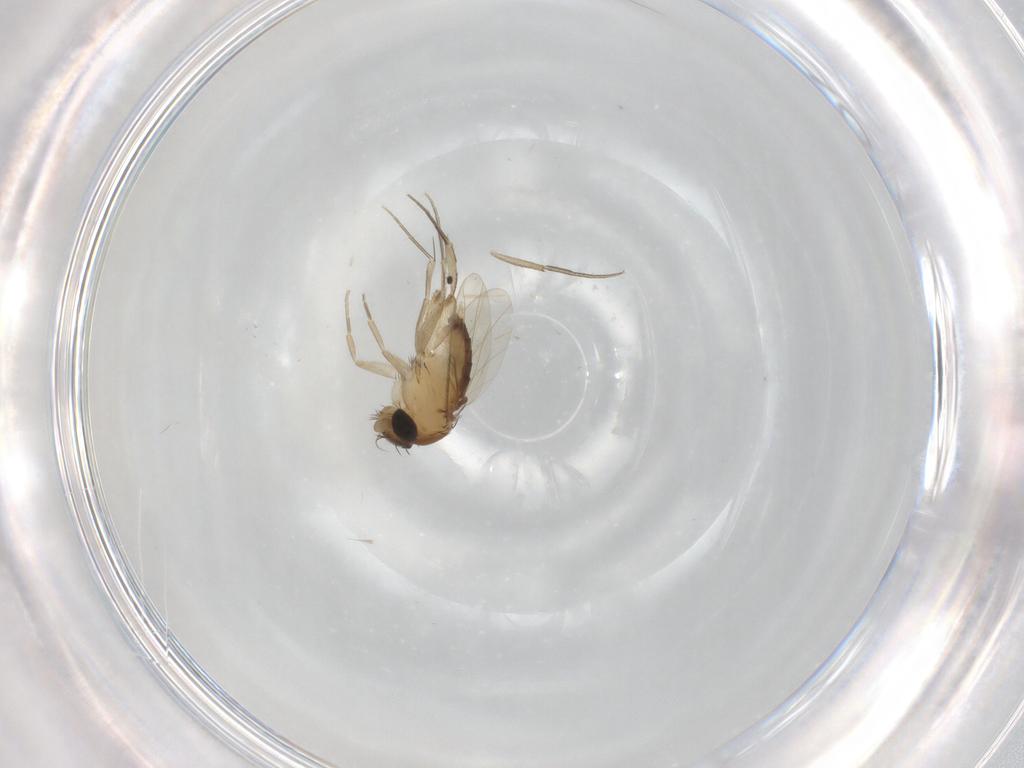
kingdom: Animalia
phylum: Arthropoda
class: Insecta
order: Diptera
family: Phoridae
